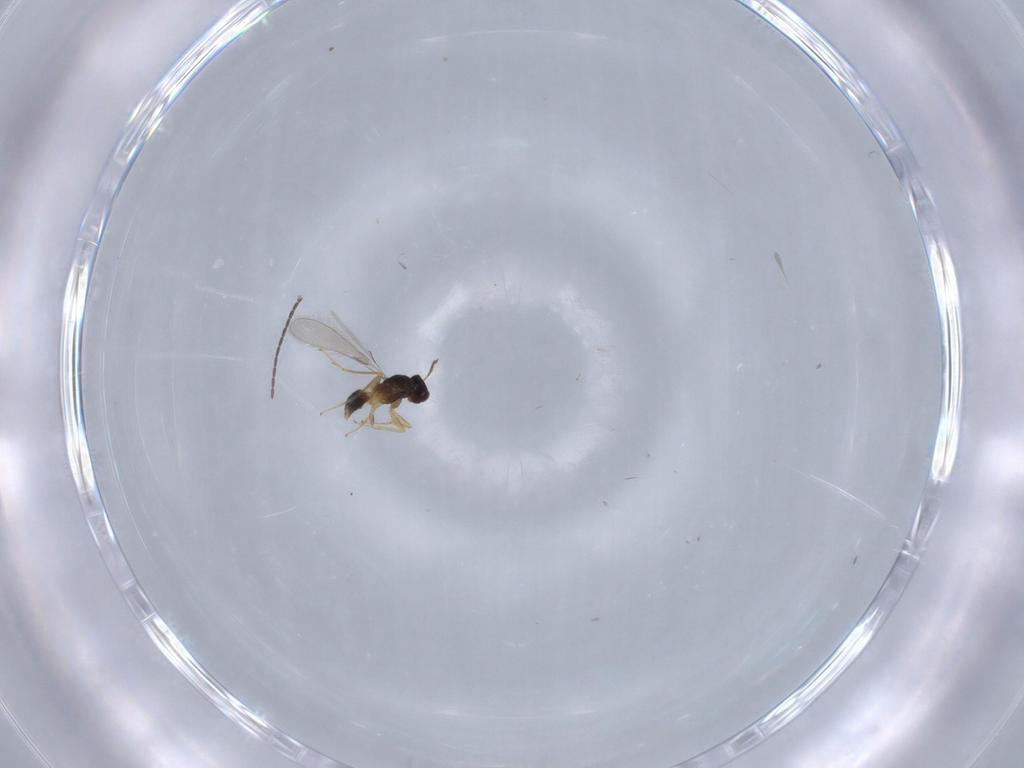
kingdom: Animalia
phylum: Arthropoda
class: Insecta
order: Hymenoptera
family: Mymaridae
